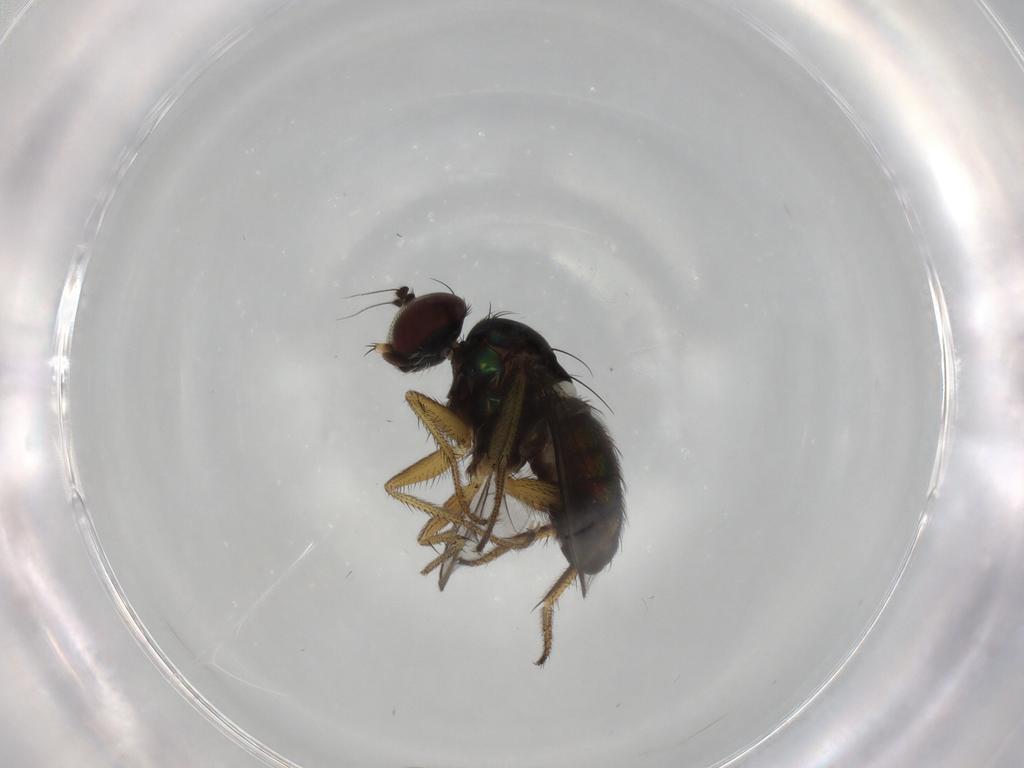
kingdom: Animalia
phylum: Arthropoda
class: Insecta
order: Diptera
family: Dolichopodidae
